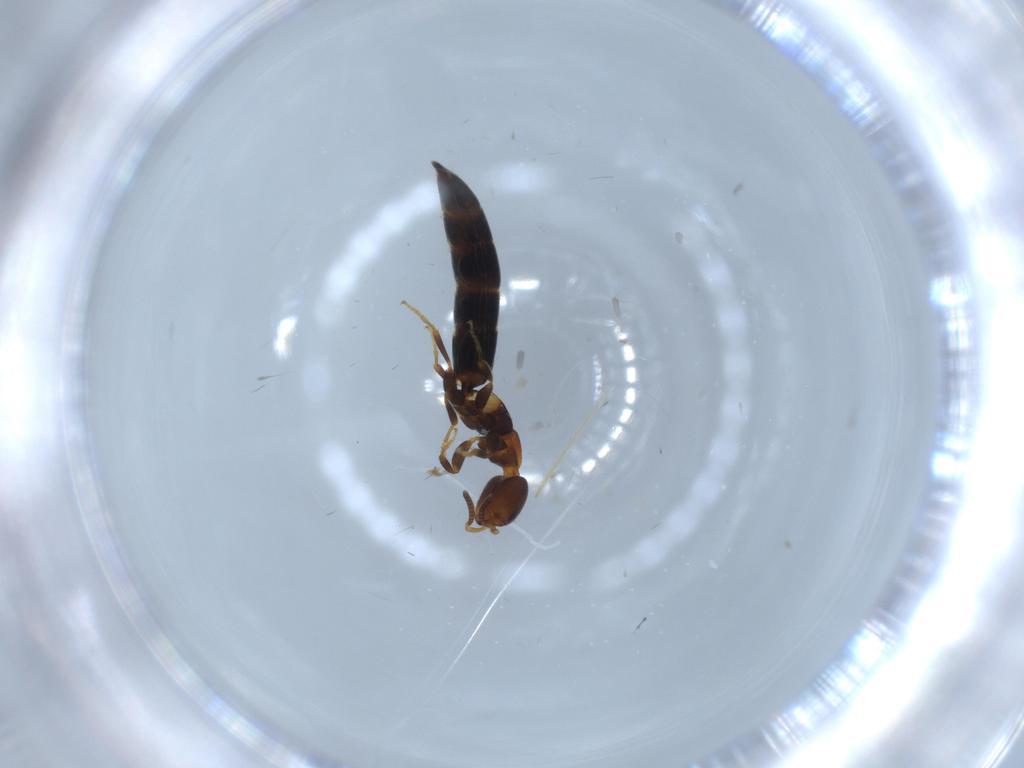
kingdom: Animalia
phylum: Arthropoda
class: Insecta
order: Hymenoptera
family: Bethylidae
